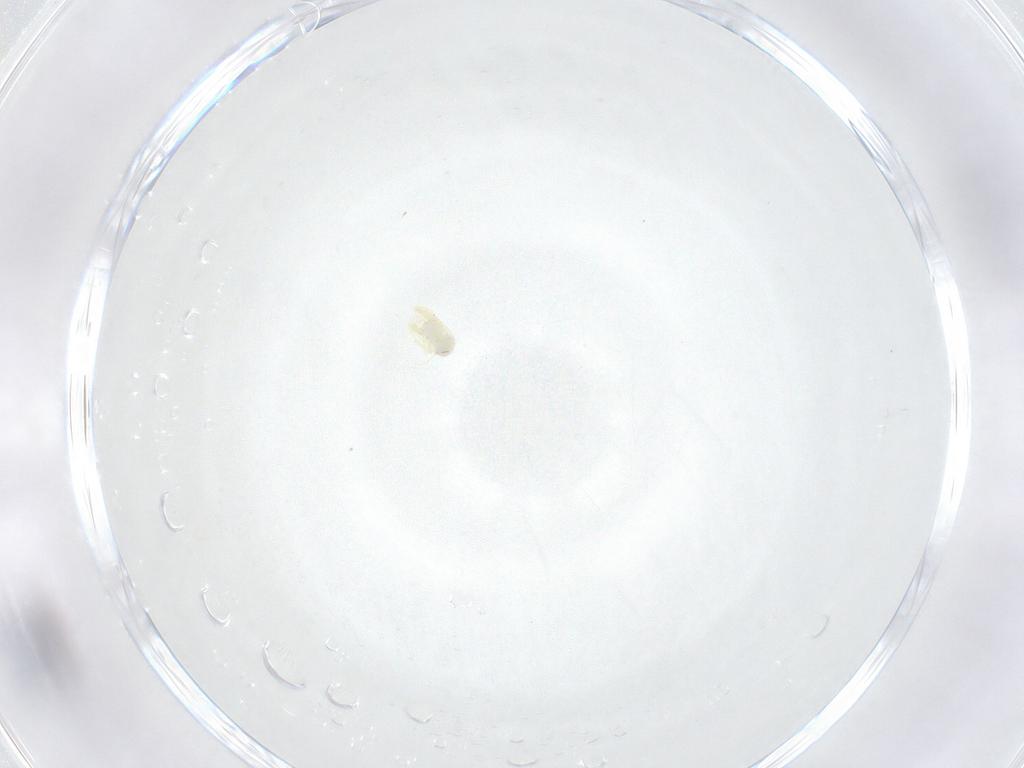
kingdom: Animalia
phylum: Arthropoda
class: Insecta
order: Hemiptera
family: Aleyrodidae
